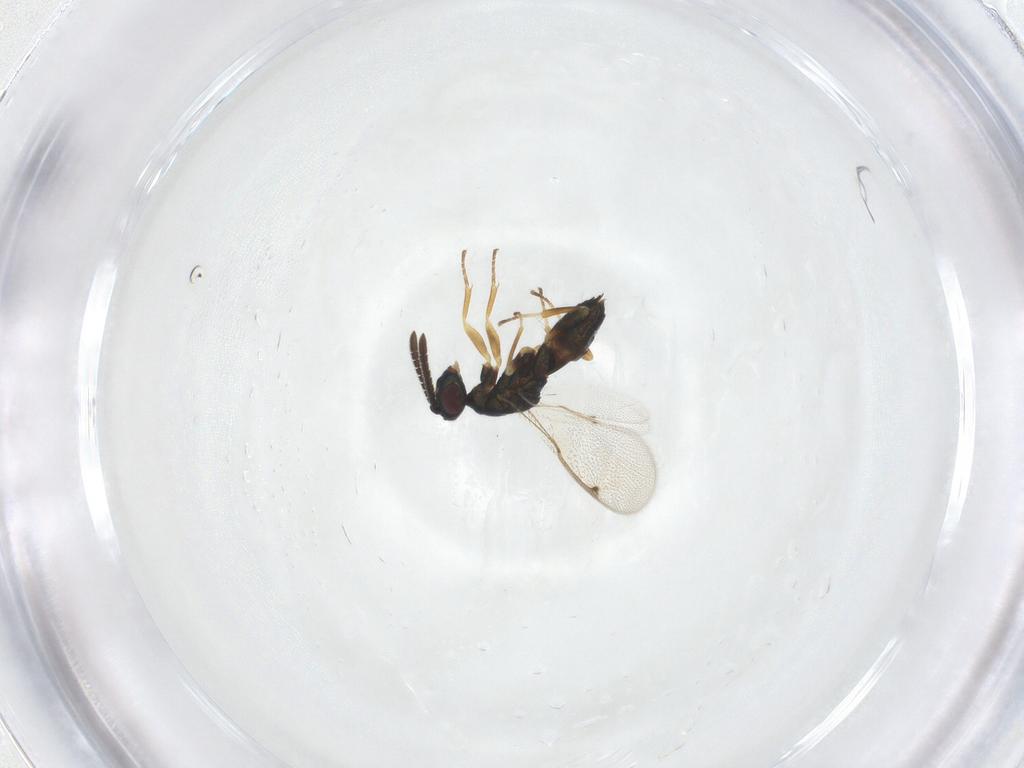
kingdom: Animalia
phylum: Arthropoda
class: Insecta
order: Hymenoptera
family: Torymidae
